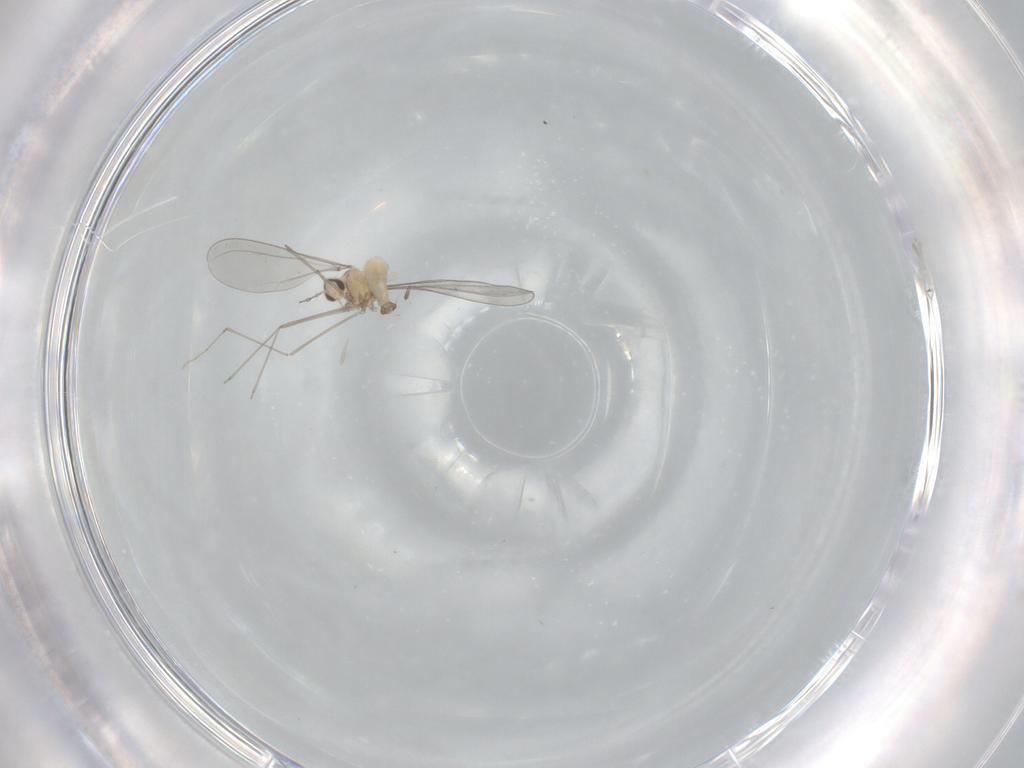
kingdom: Animalia
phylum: Arthropoda
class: Insecta
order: Diptera
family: Cecidomyiidae
